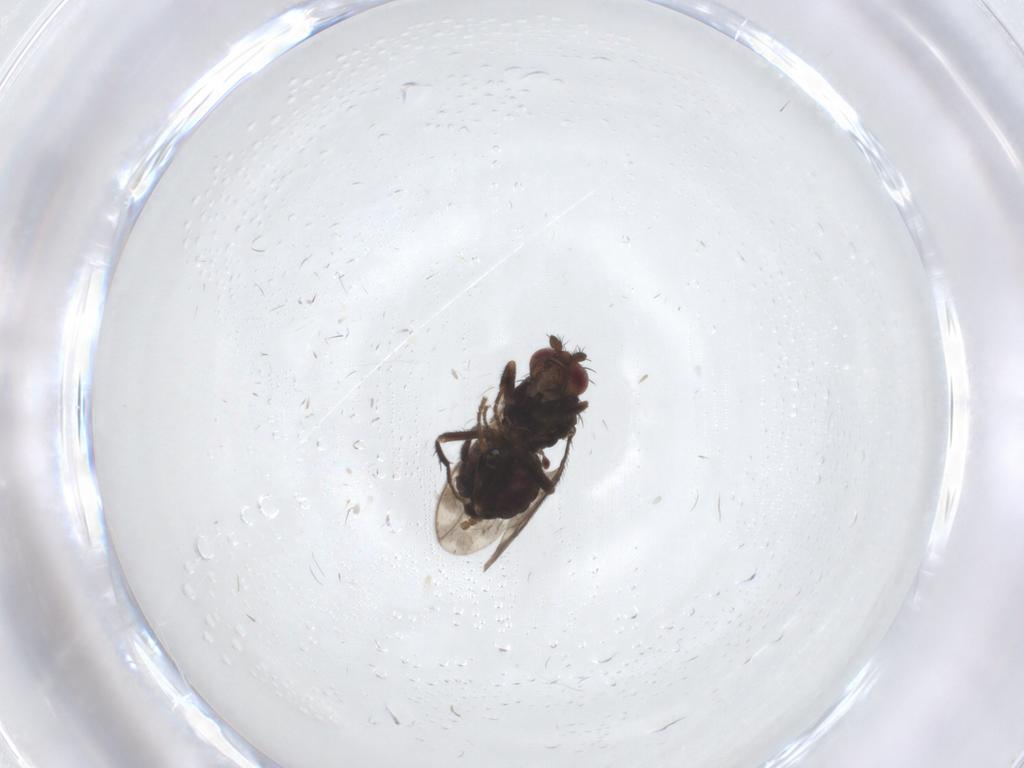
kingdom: Animalia
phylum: Arthropoda
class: Insecta
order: Diptera
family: Sphaeroceridae
